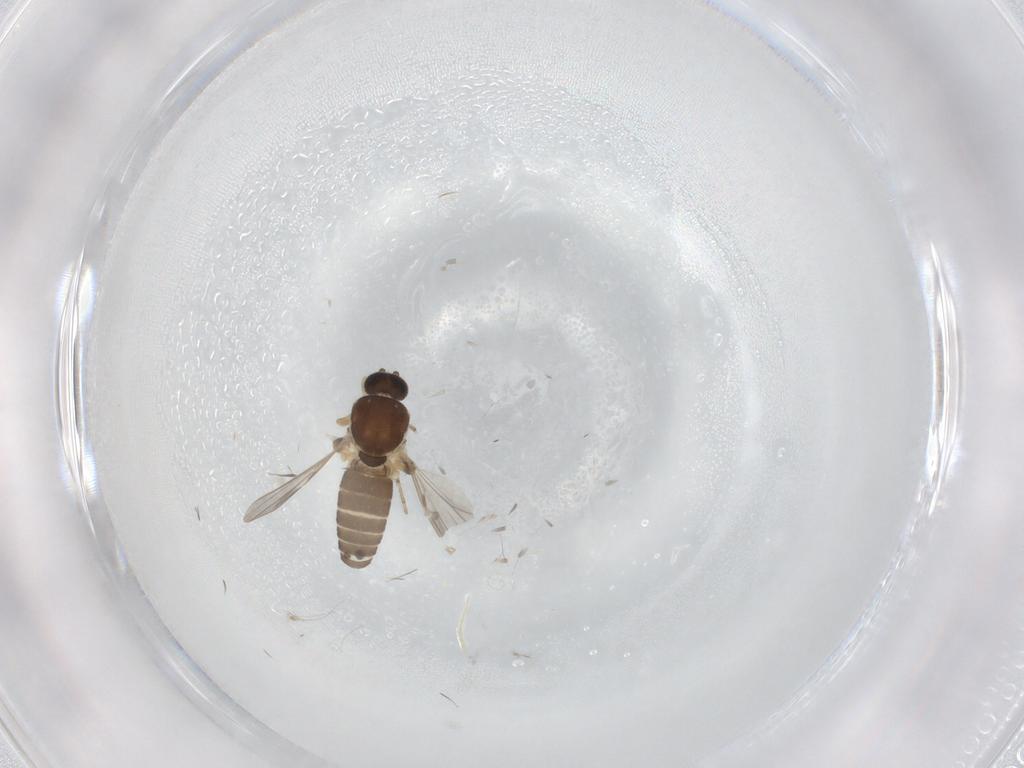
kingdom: Animalia
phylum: Arthropoda
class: Insecta
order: Diptera
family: Ceratopogonidae
